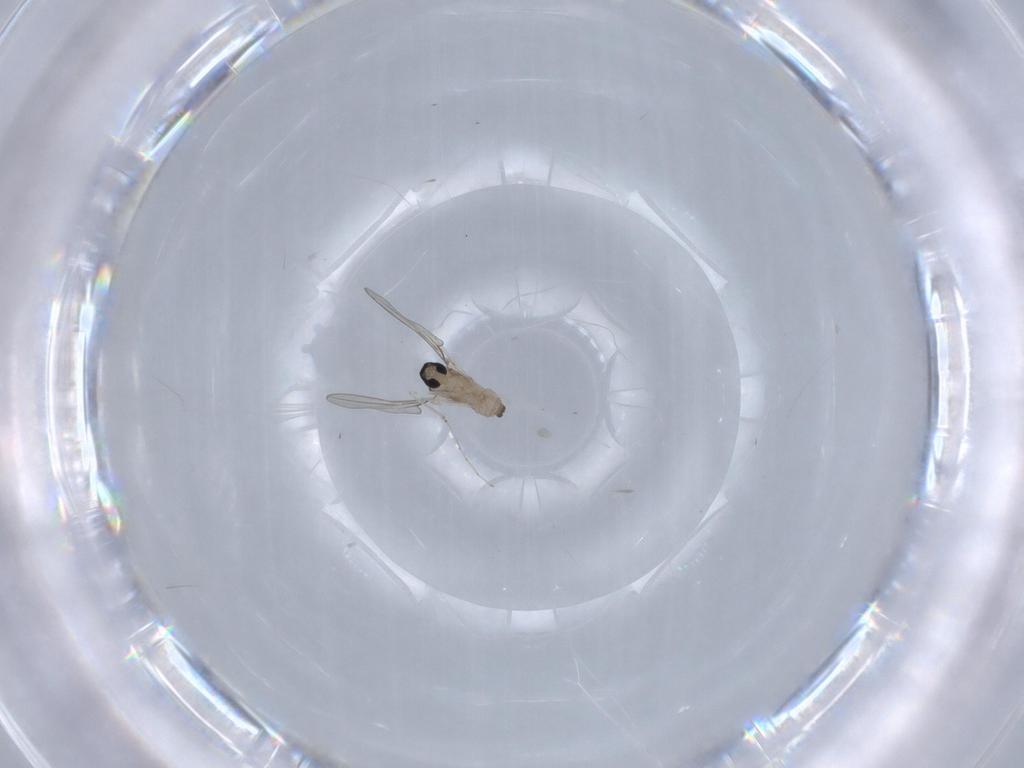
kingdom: Animalia
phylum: Arthropoda
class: Insecta
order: Diptera
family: Cecidomyiidae
